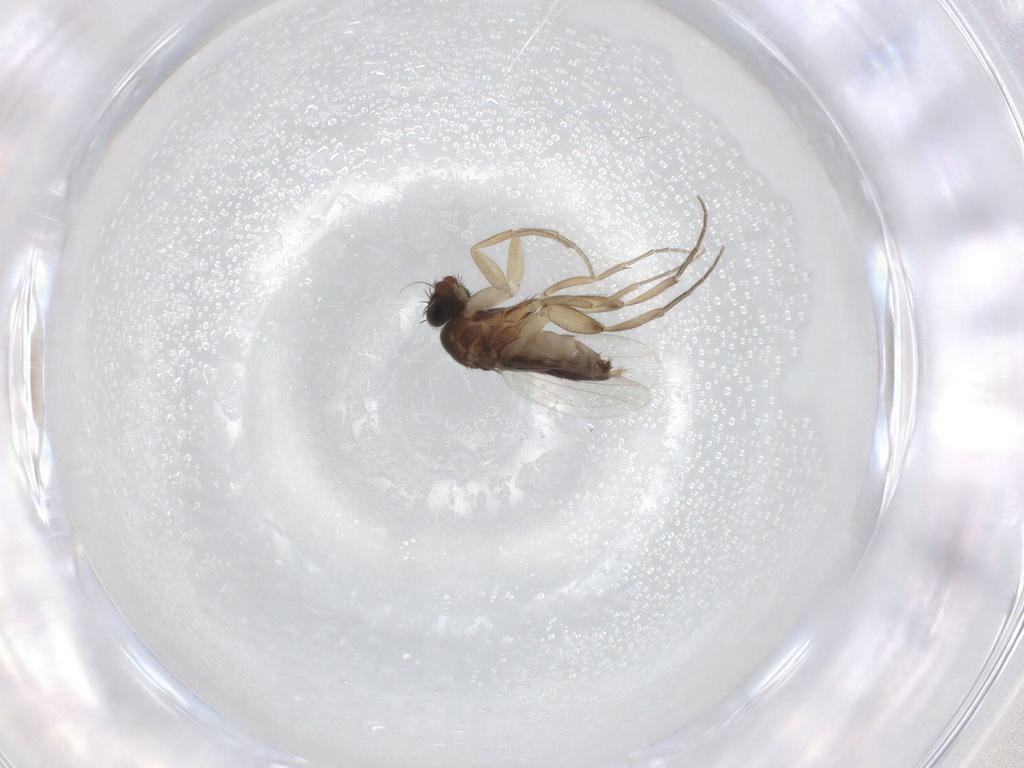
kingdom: Animalia
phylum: Arthropoda
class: Insecta
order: Diptera
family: Phoridae
